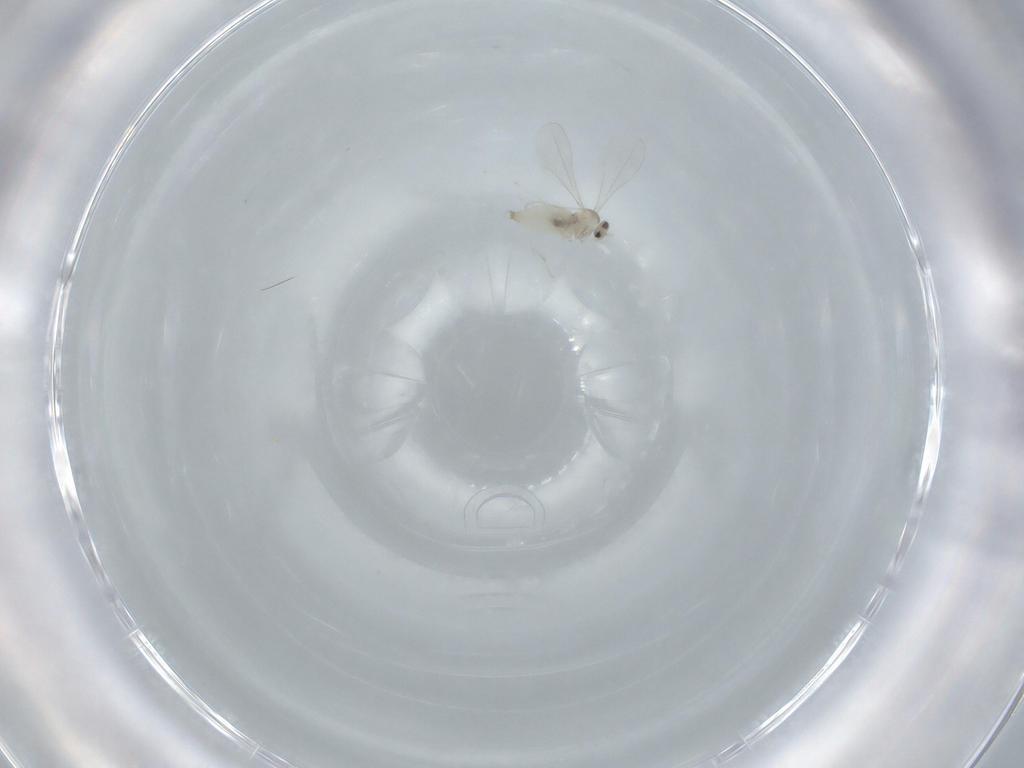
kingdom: Animalia
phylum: Arthropoda
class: Insecta
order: Diptera
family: Cecidomyiidae
